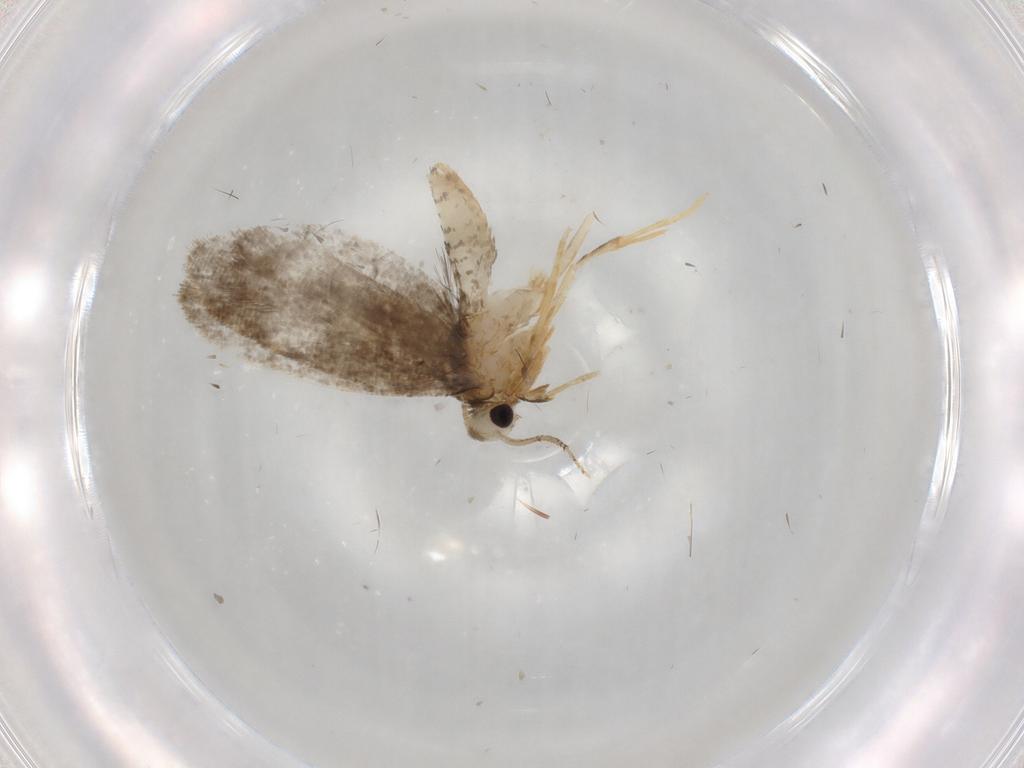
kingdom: Animalia
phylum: Arthropoda
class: Insecta
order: Lepidoptera
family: Psychidae
